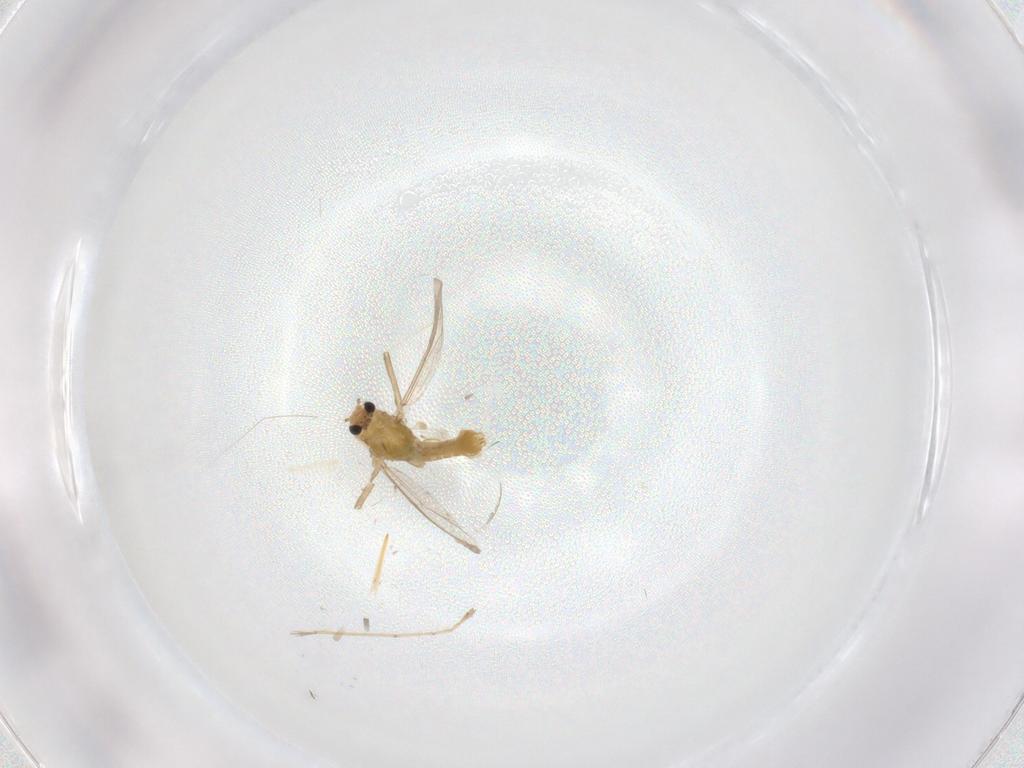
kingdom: Animalia
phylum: Arthropoda
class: Insecta
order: Diptera
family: Chironomidae
